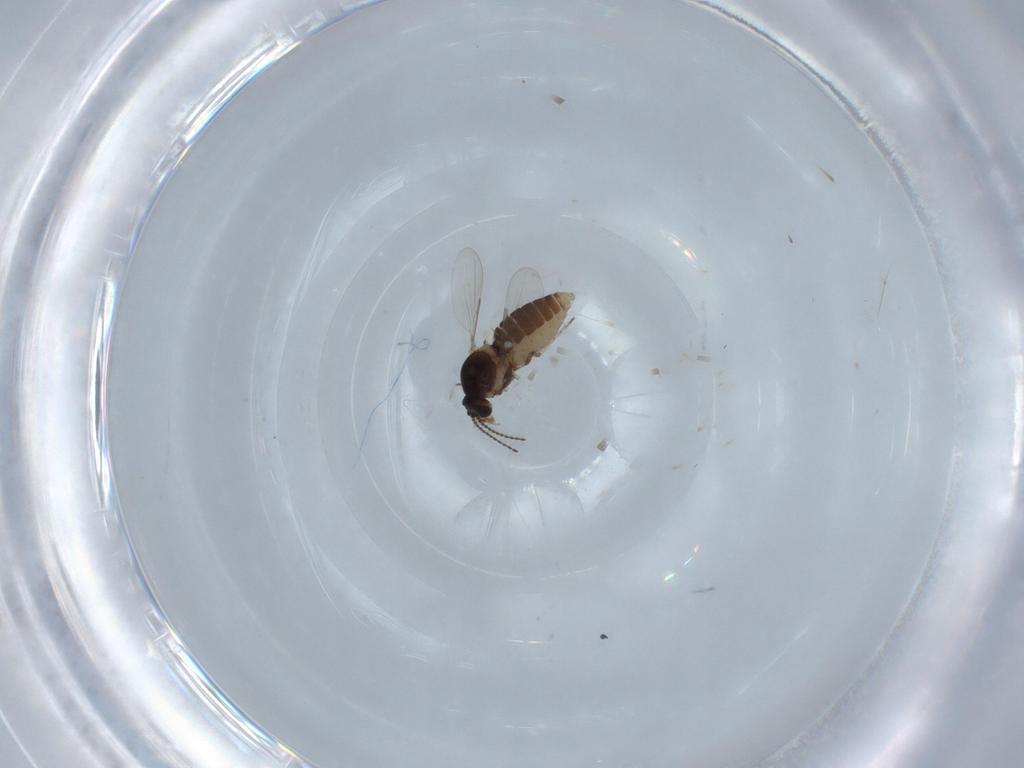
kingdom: Animalia
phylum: Arthropoda
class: Insecta
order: Diptera
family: Ceratopogonidae
